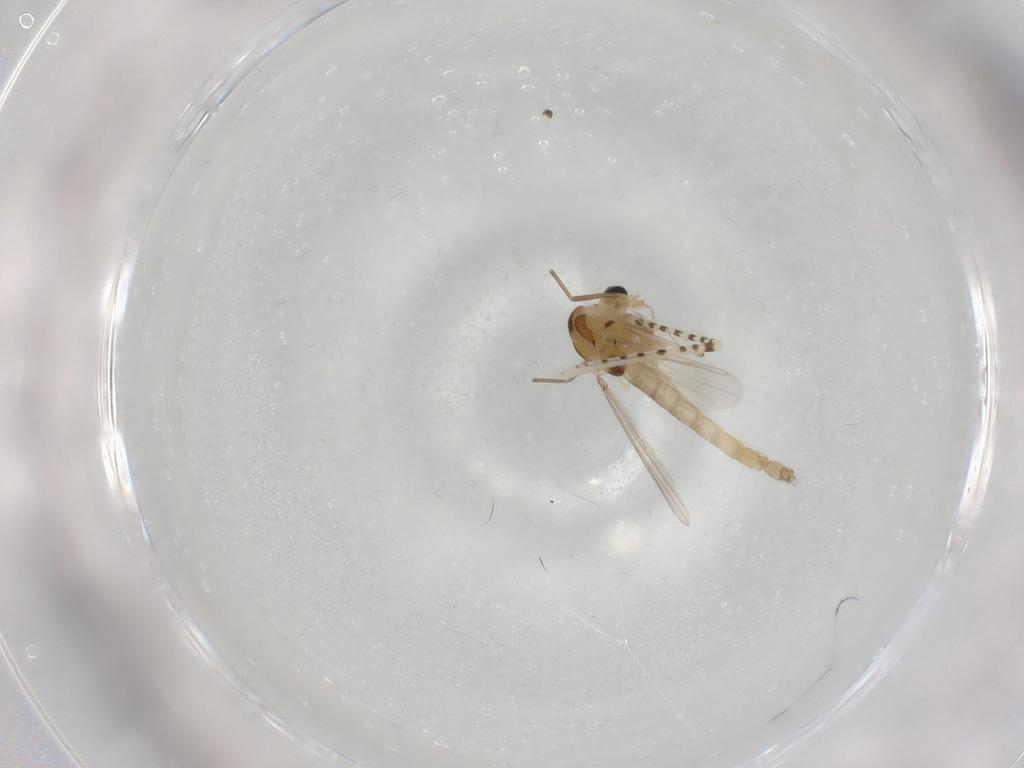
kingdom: Animalia
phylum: Arthropoda
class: Insecta
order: Diptera
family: Chironomidae
